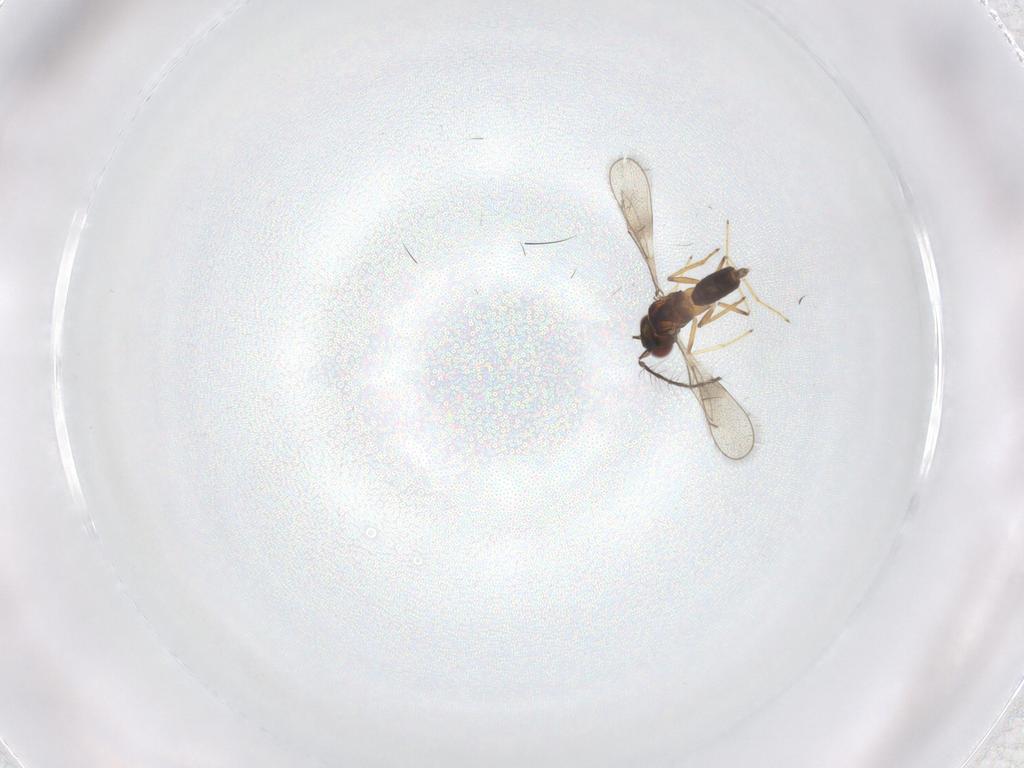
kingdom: Animalia
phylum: Arthropoda
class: Insecta
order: Hymenoptera
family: Eulophidae
